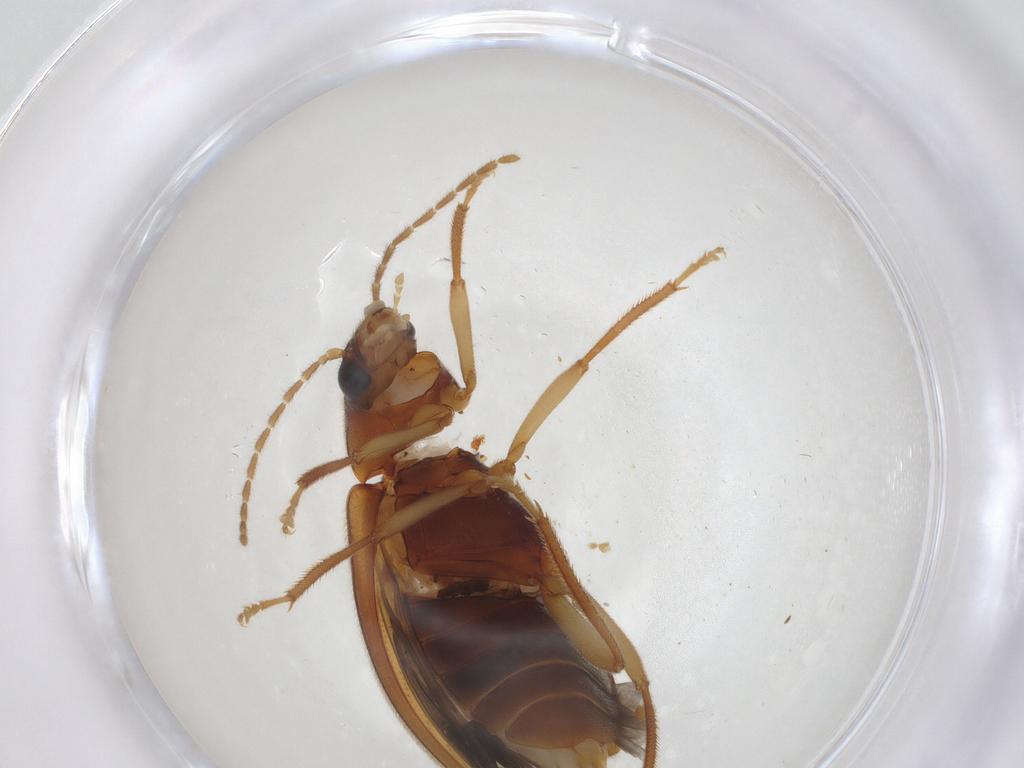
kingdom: Animalia
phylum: Arthropoda
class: Insecta
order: Coleoptera
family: Ptilodactylidae
